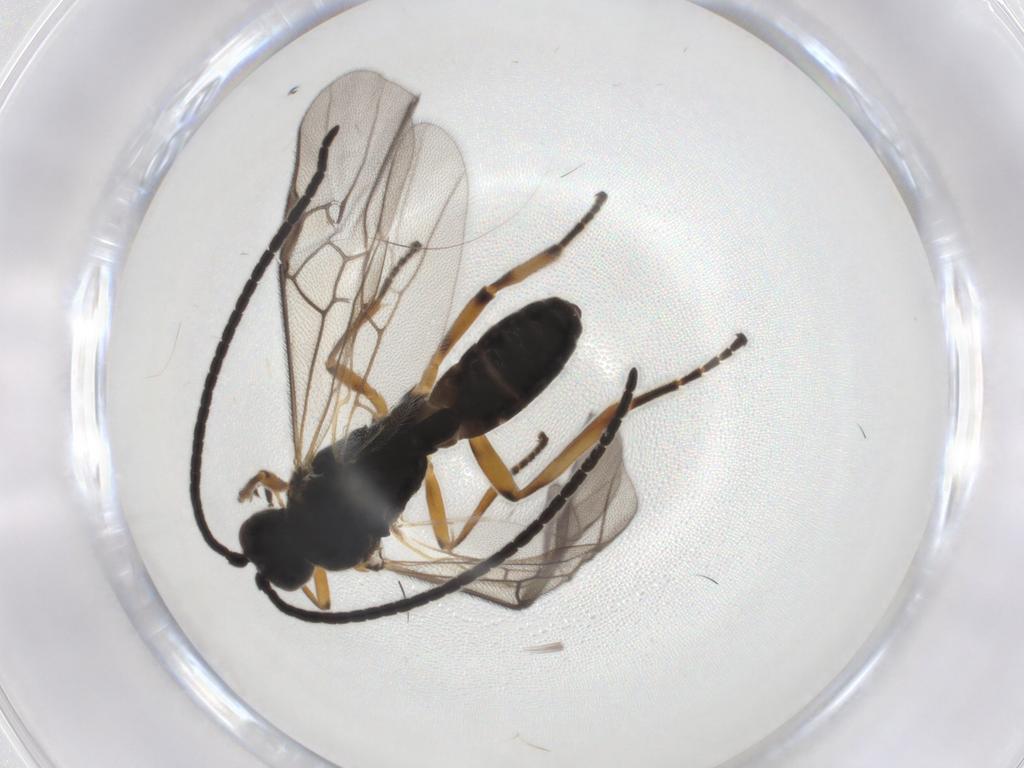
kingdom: Animalia
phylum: Arthropoda
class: Insecta
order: Hymenoptera
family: Braconidae
